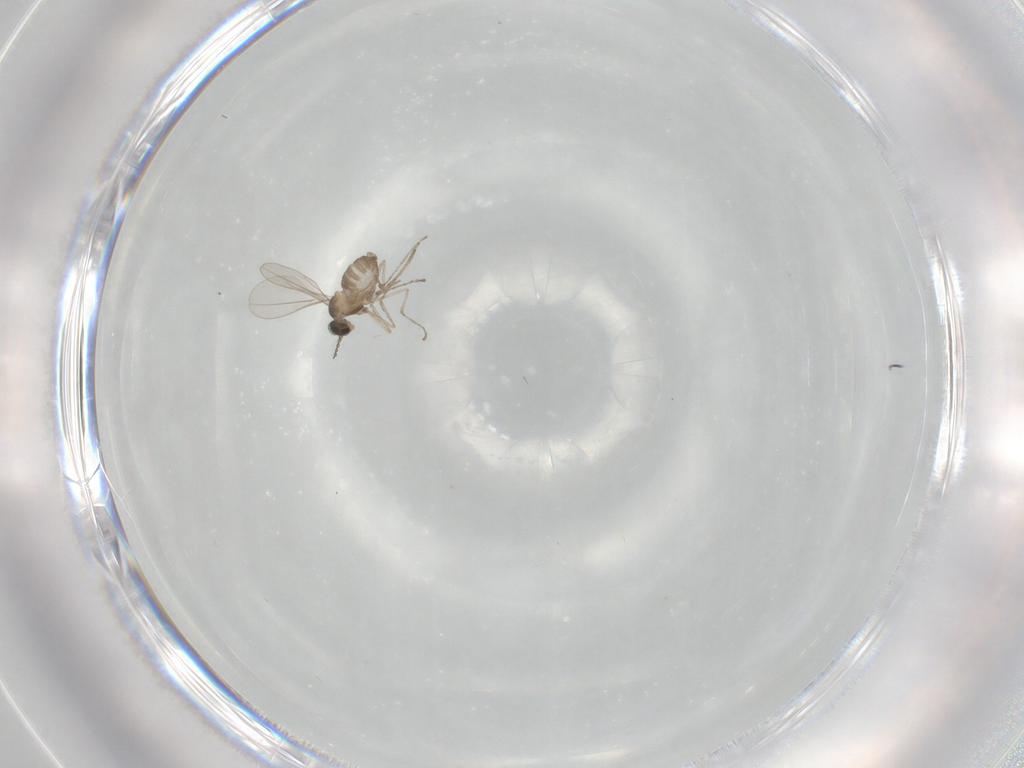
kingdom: Animalia
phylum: Arthropoda
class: Insecta
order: Diptera
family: Cecidomyiidae
